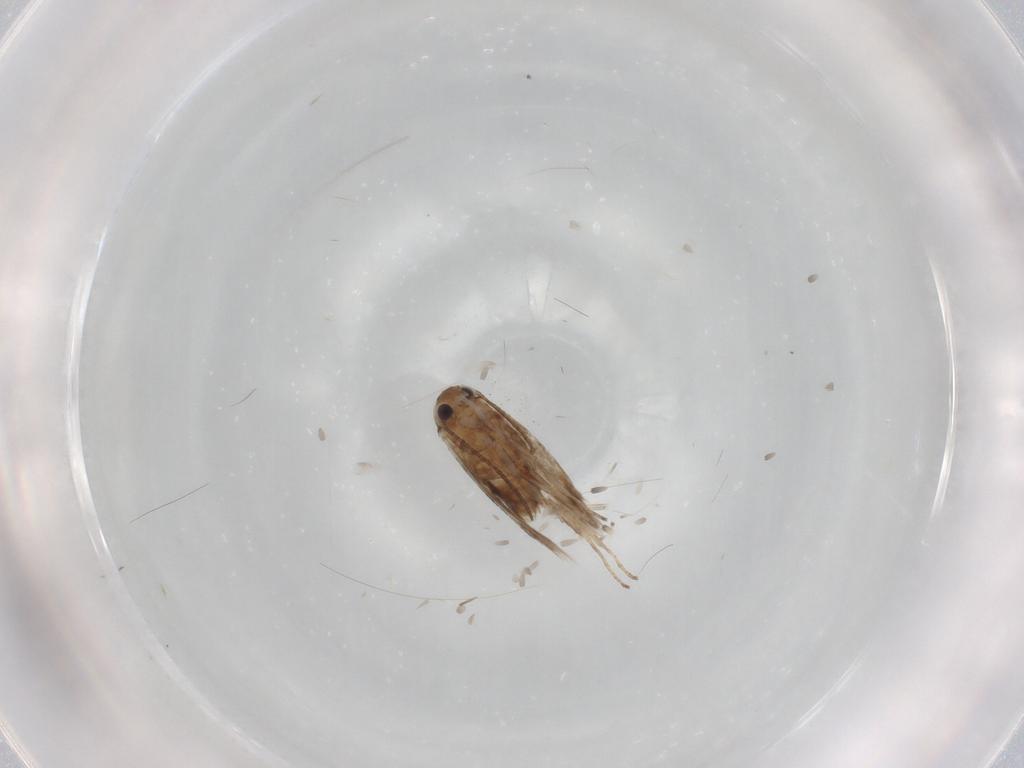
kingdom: Animalia
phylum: Arthropoda
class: Insecta
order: Lepidoptera
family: Nymphalidae
